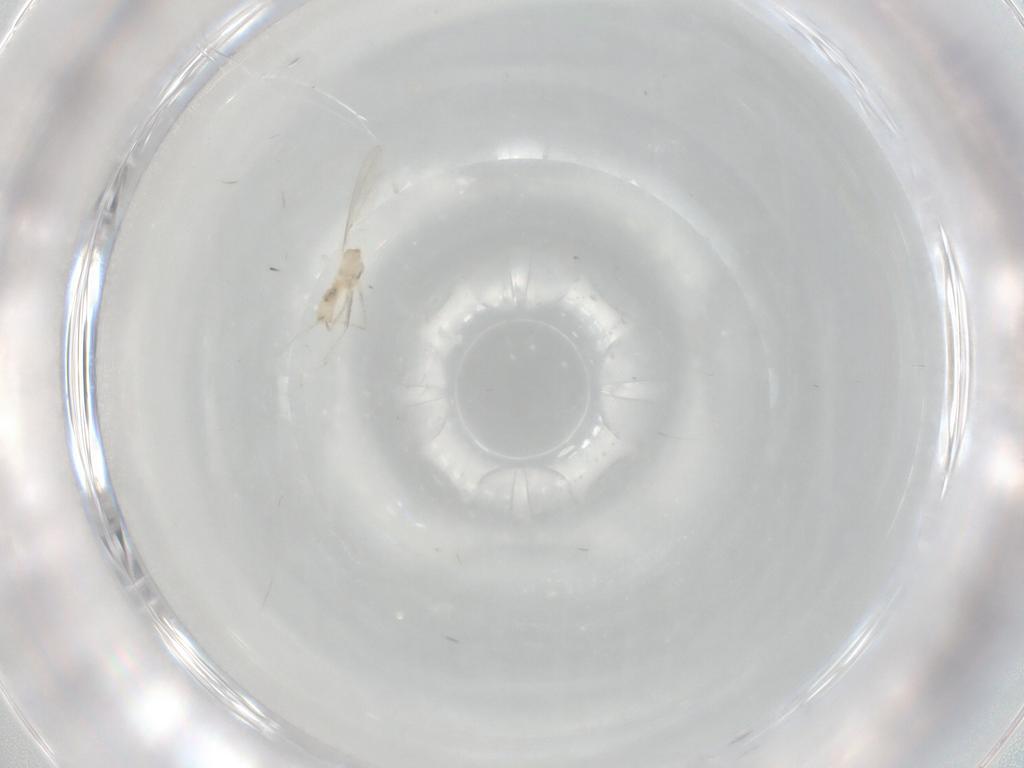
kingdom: Animalia
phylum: Arthropoda
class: Insecta
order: Diptera
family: Cecidomyiidae
